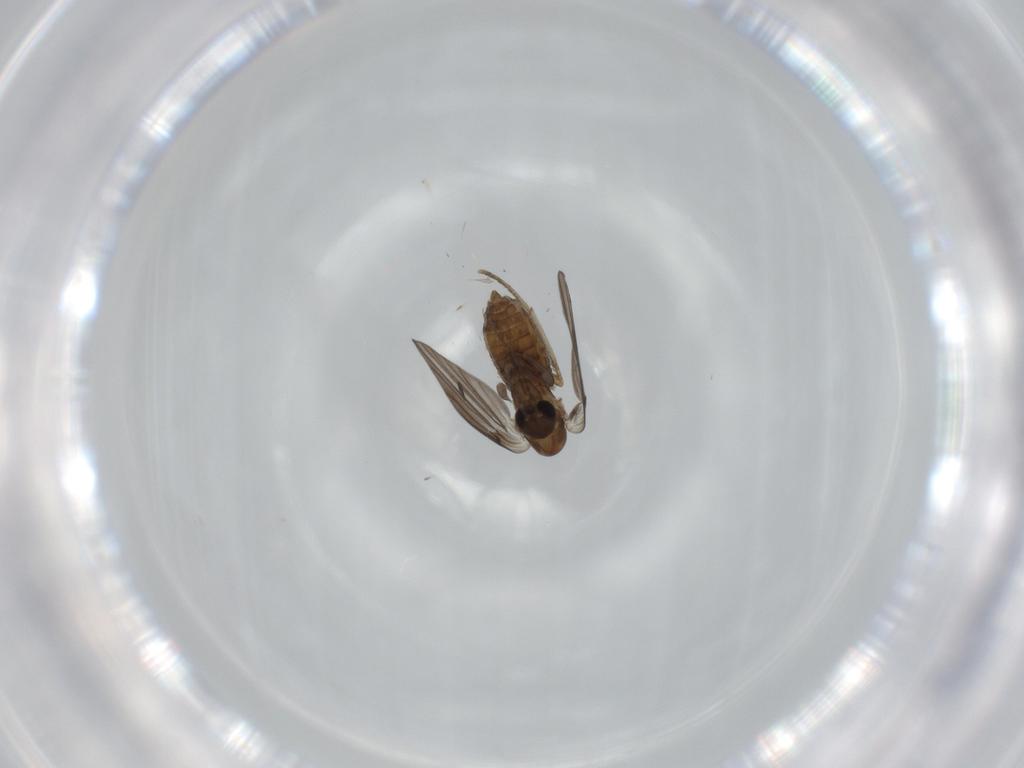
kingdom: Animalia
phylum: Arthropoda
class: Insecta
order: Diptera
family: Psychodidae
